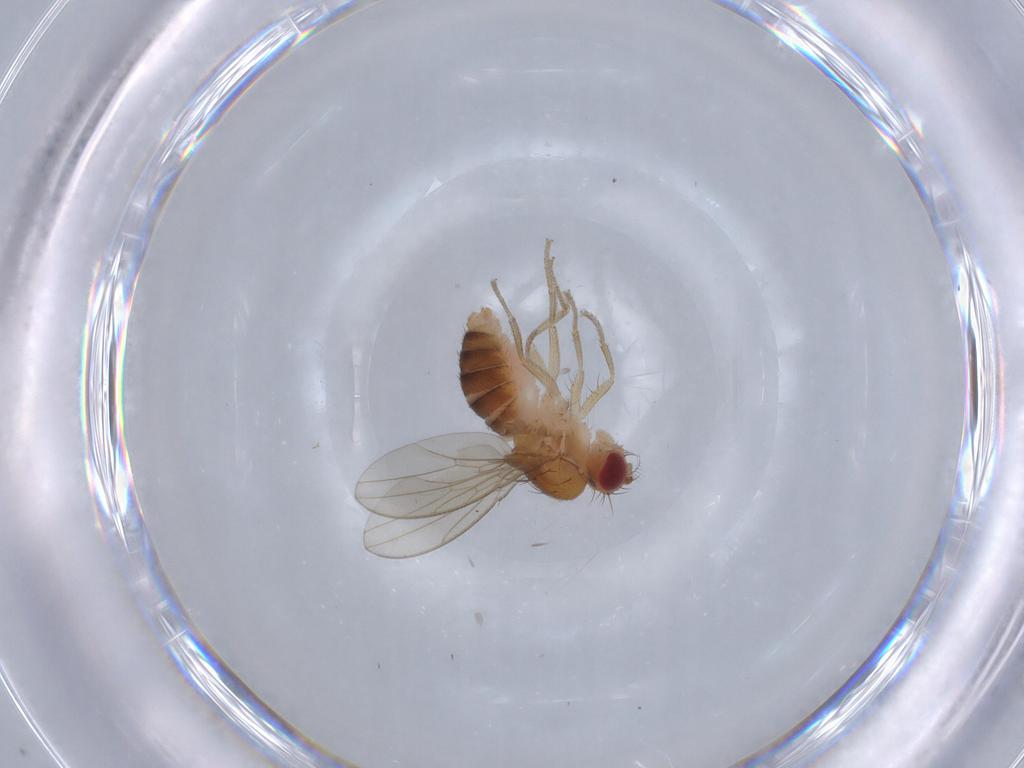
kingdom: Animalia
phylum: Arthropoda
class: Insecta
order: Diptera
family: Drosophilidae
